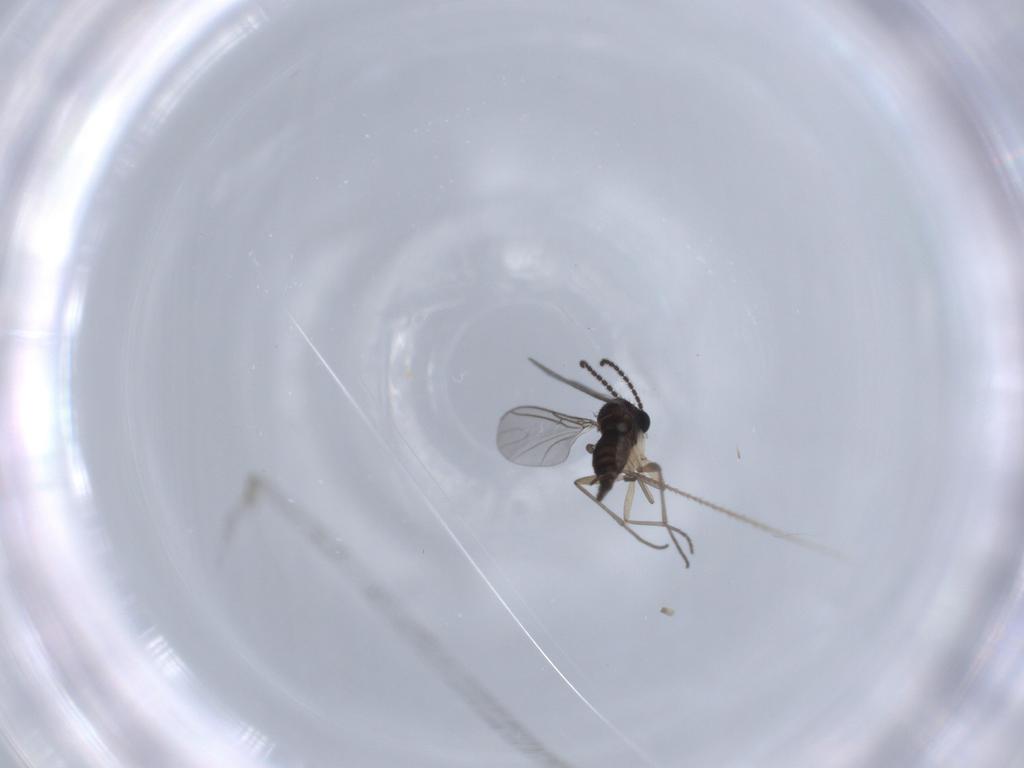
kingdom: Animalia
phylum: Arthropoda
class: Insecta
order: Diptera
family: Sciaridae
